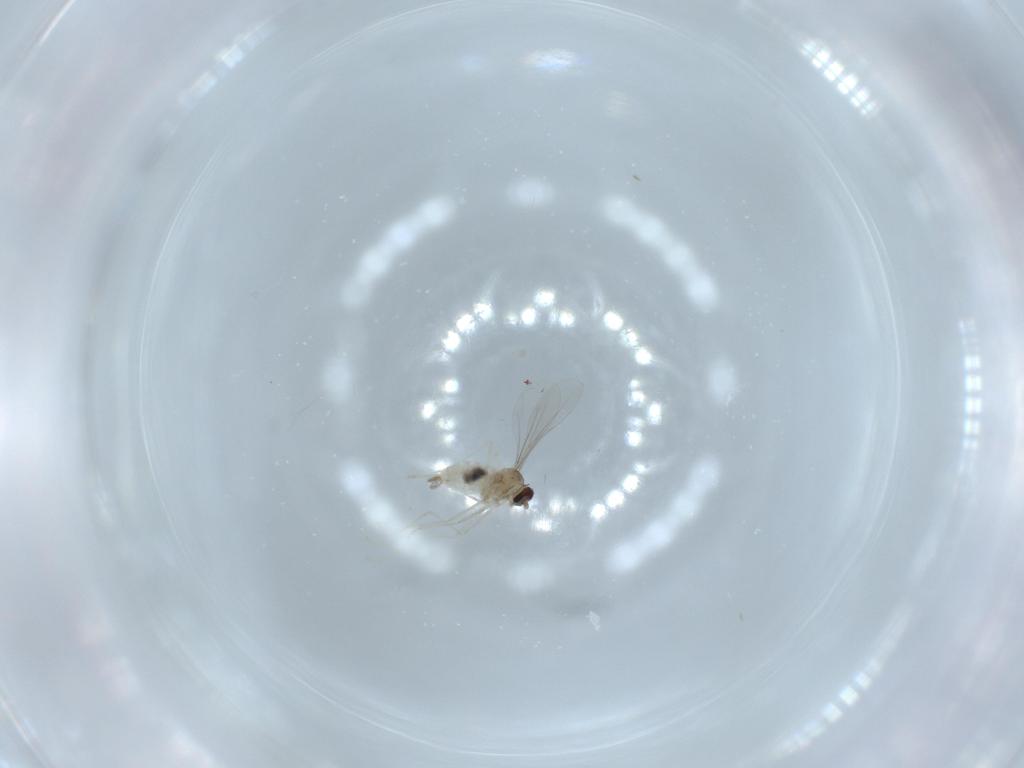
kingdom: Animalia
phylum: Arthropoda
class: Insecta
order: Diptera
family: Cecidomyiidae
